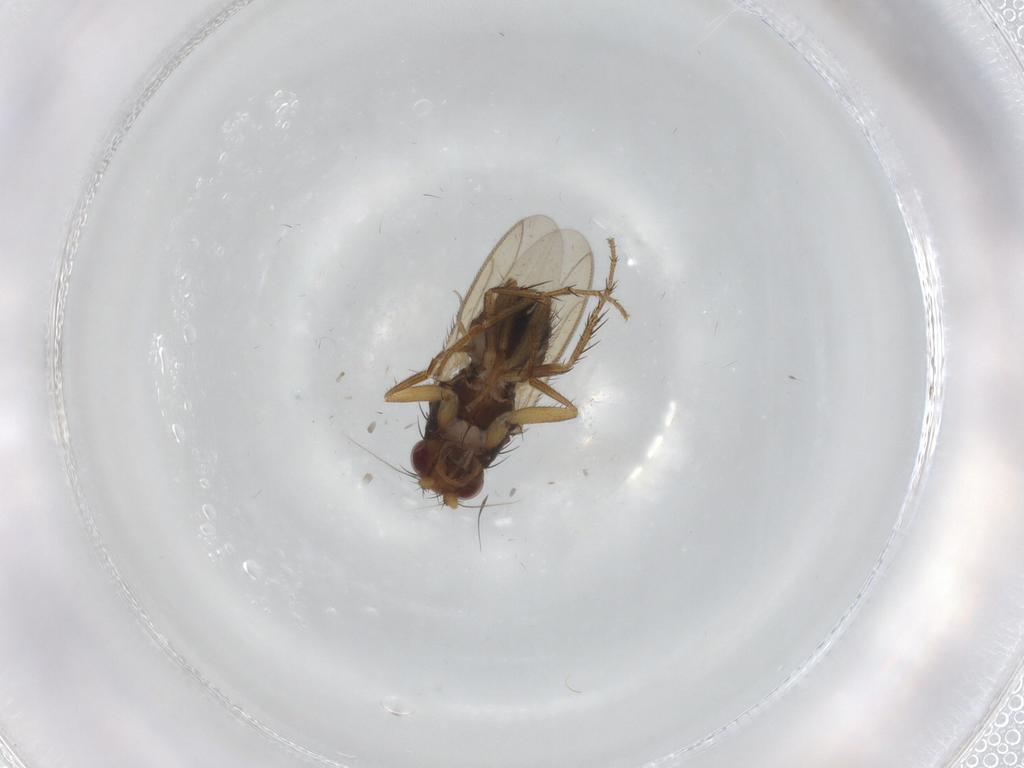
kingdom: Animalia
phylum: Arthropoda
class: Insecta
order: Diptera
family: Sphaeroceridae
